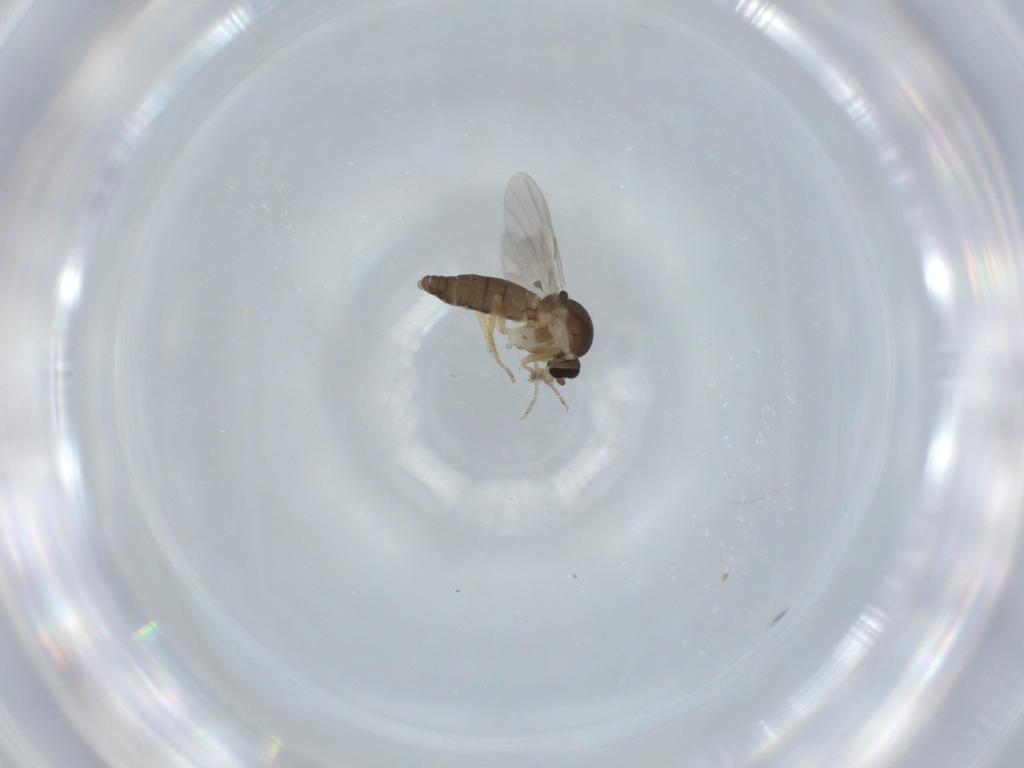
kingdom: Animalia
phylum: Arthropoda
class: Insecta
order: Diptera
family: Ceratopogonidae
